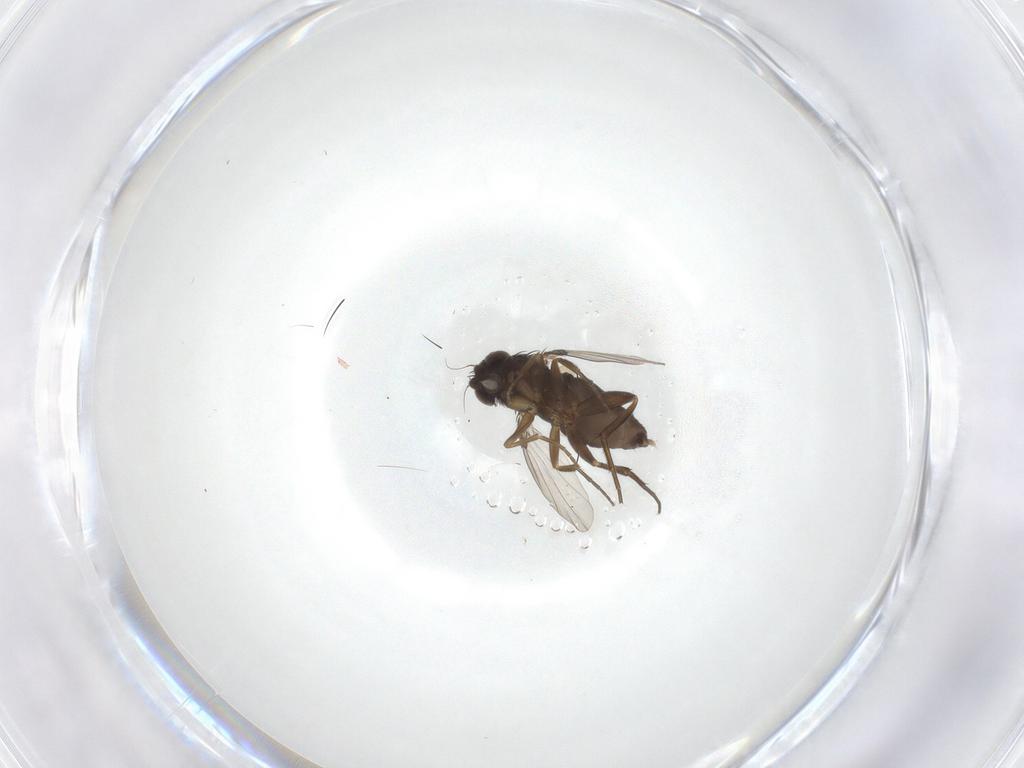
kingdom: Animalia
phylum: Arthropoda
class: Insecta
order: Diptera
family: Phoridae
